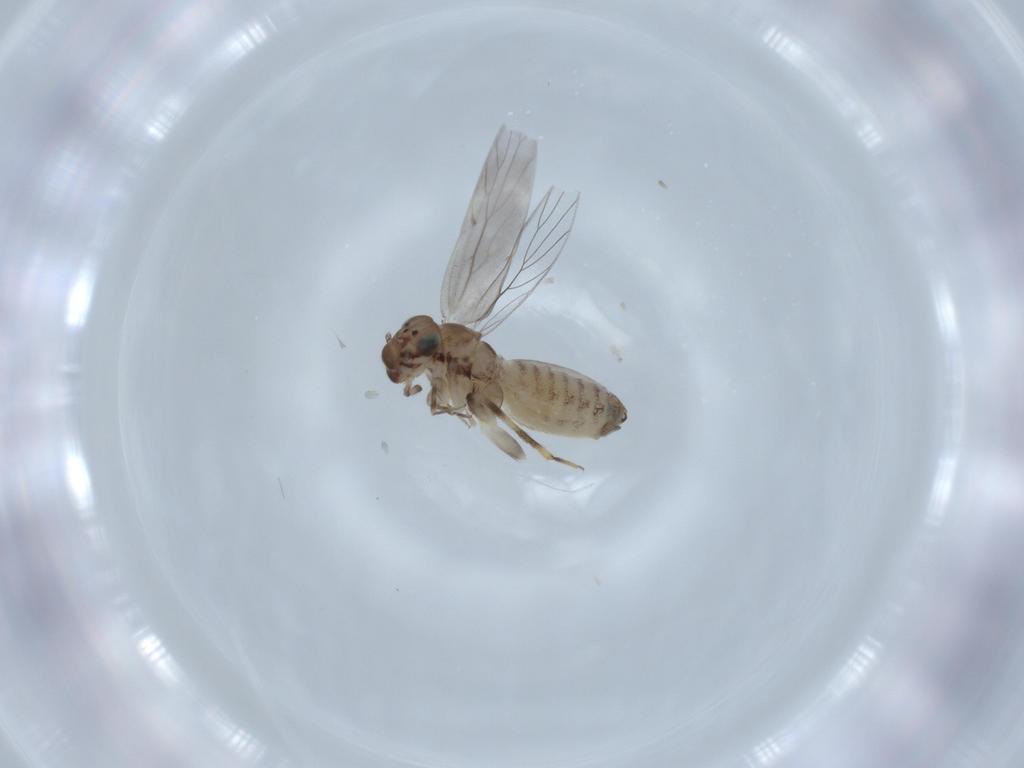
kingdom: Animalia
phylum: Arthropoda
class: Insecta
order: Psocodea
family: Lepidopsocidae
